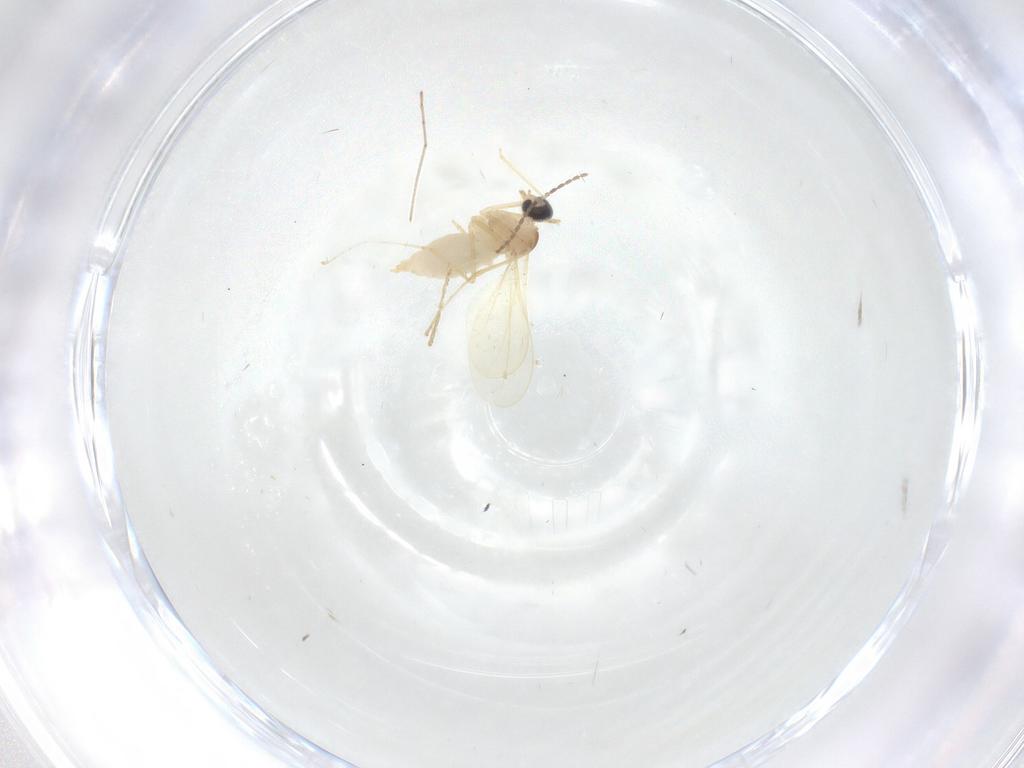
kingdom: Animalia
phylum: Arthropoda
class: Insecta
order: Diptera
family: Cecidomyiidae
